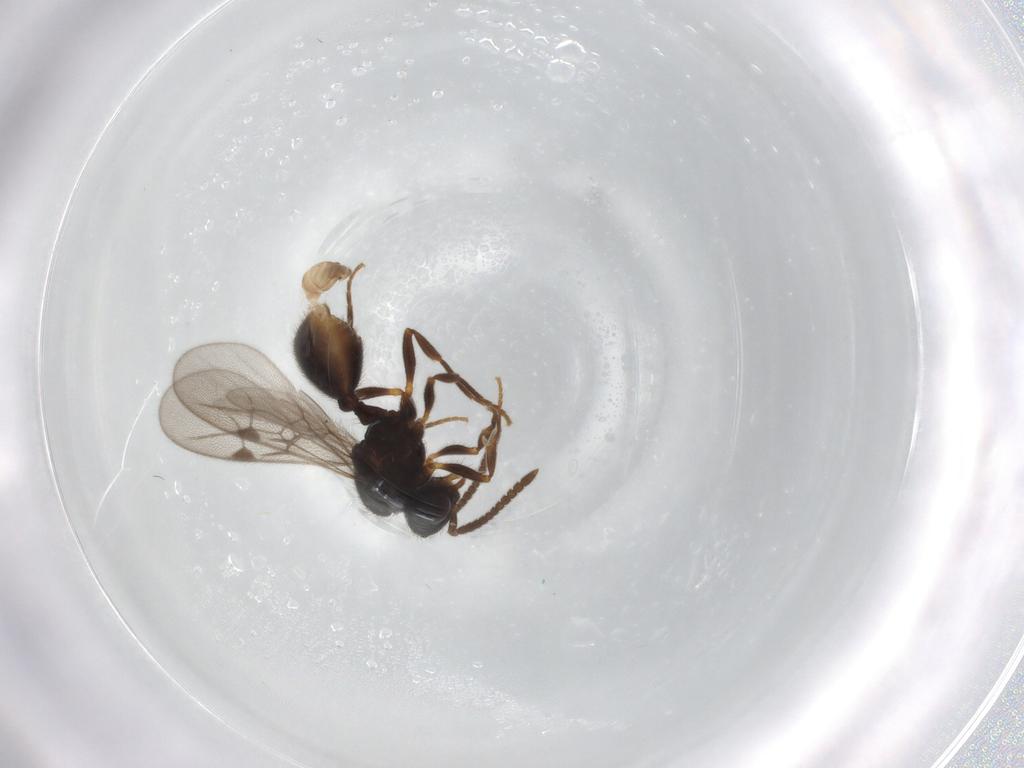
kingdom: Animalia
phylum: Arthropoda
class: Insecta
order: Hymenoptera
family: Formicidae
